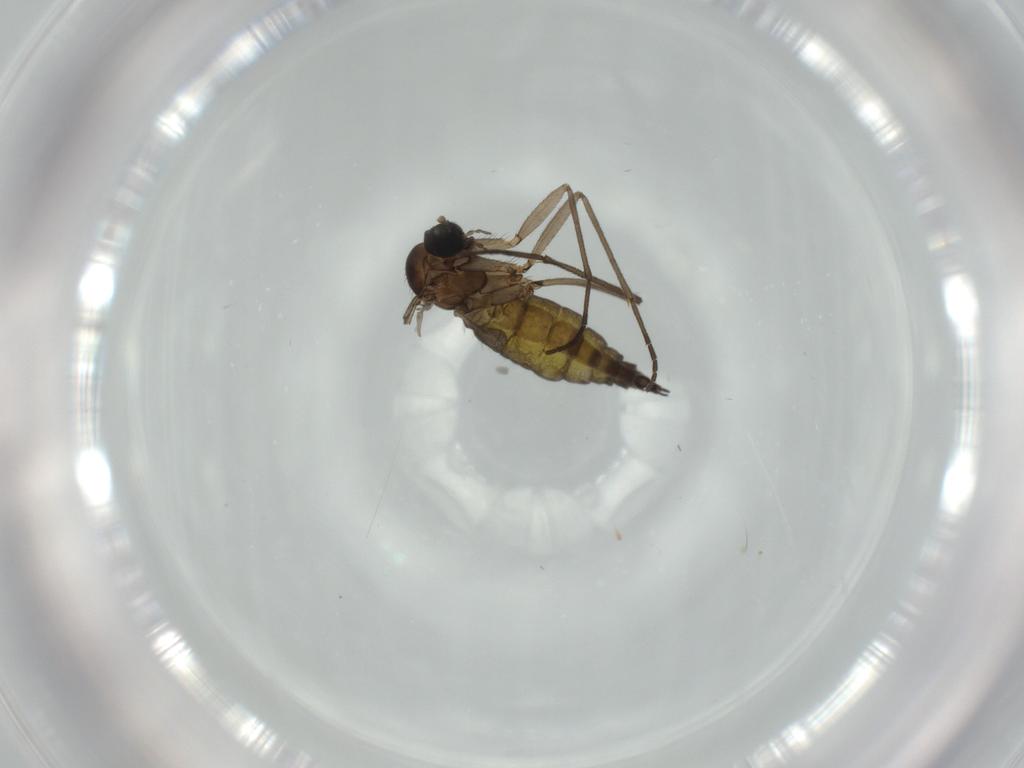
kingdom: Animalia
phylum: Arthropoda
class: Insecta
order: Diptera
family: Sciaridae
